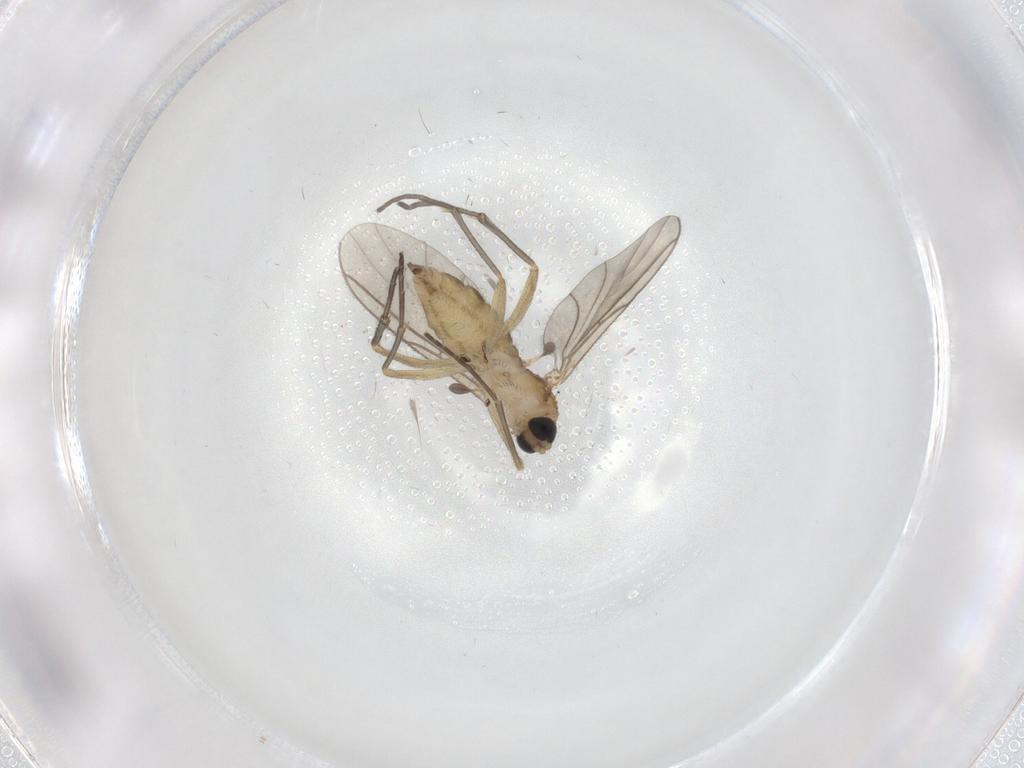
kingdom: Animalia
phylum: Arthropoda
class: Insecta
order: Diptera
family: Sciaridae
